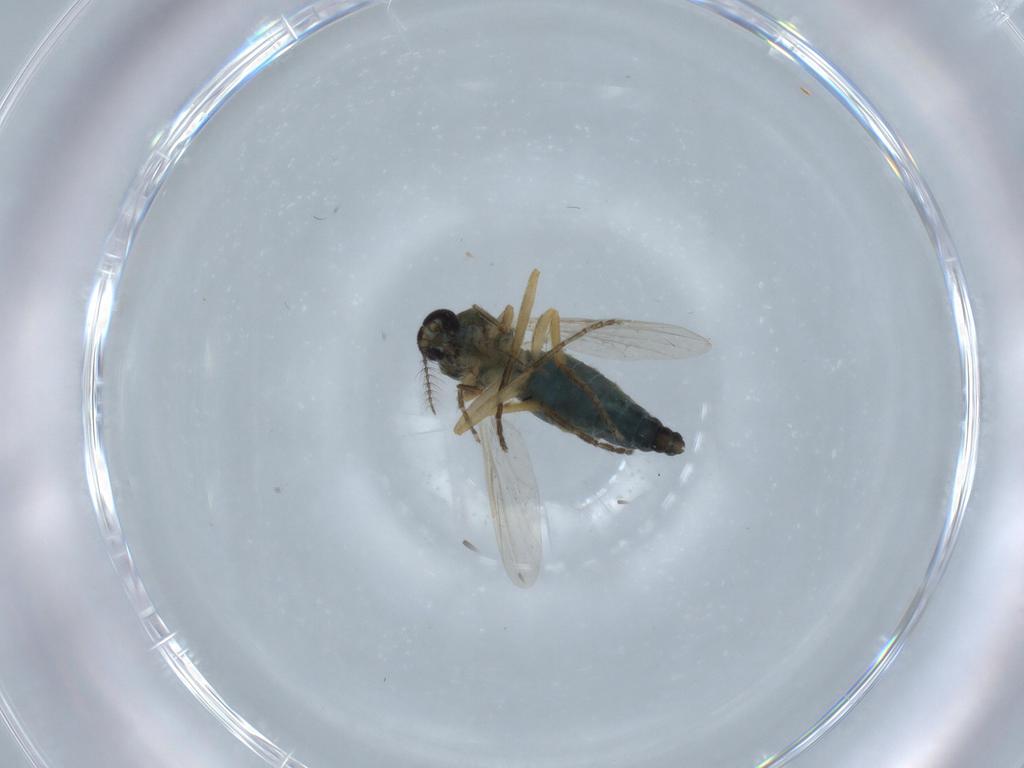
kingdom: Animalia
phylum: Arthropoda
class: Insecta
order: Diptera
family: Ceratopogonidae
